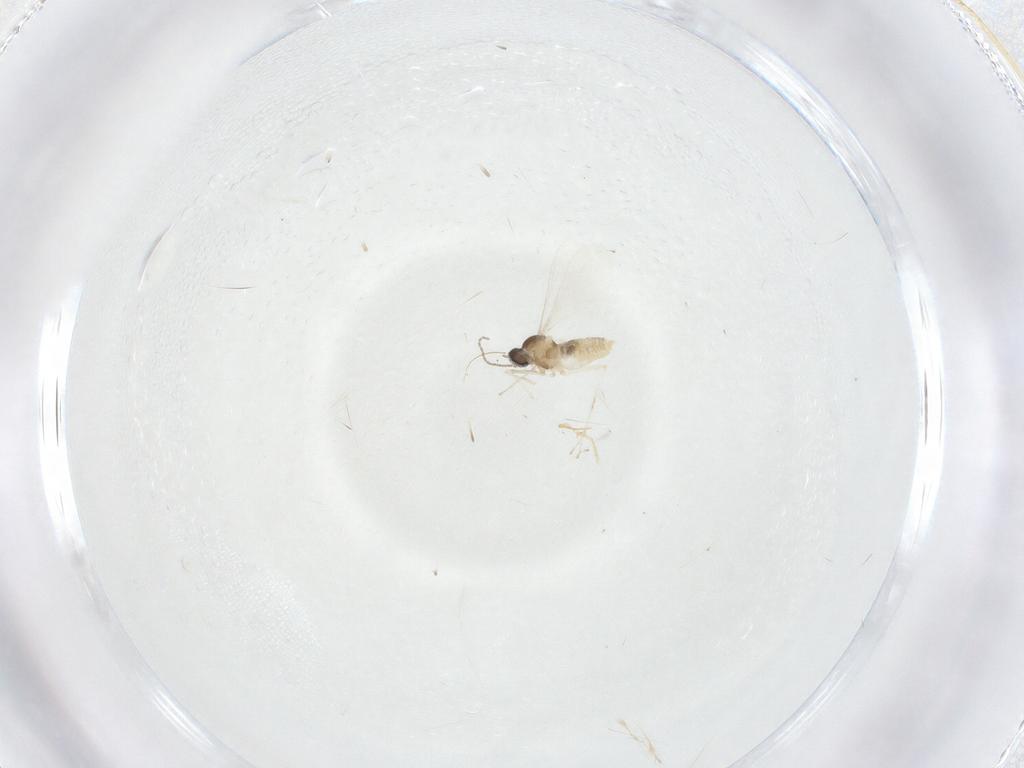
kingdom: Animalia
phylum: Arthropoda
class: Insecta
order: Diptera
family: Cecidomyiidae
